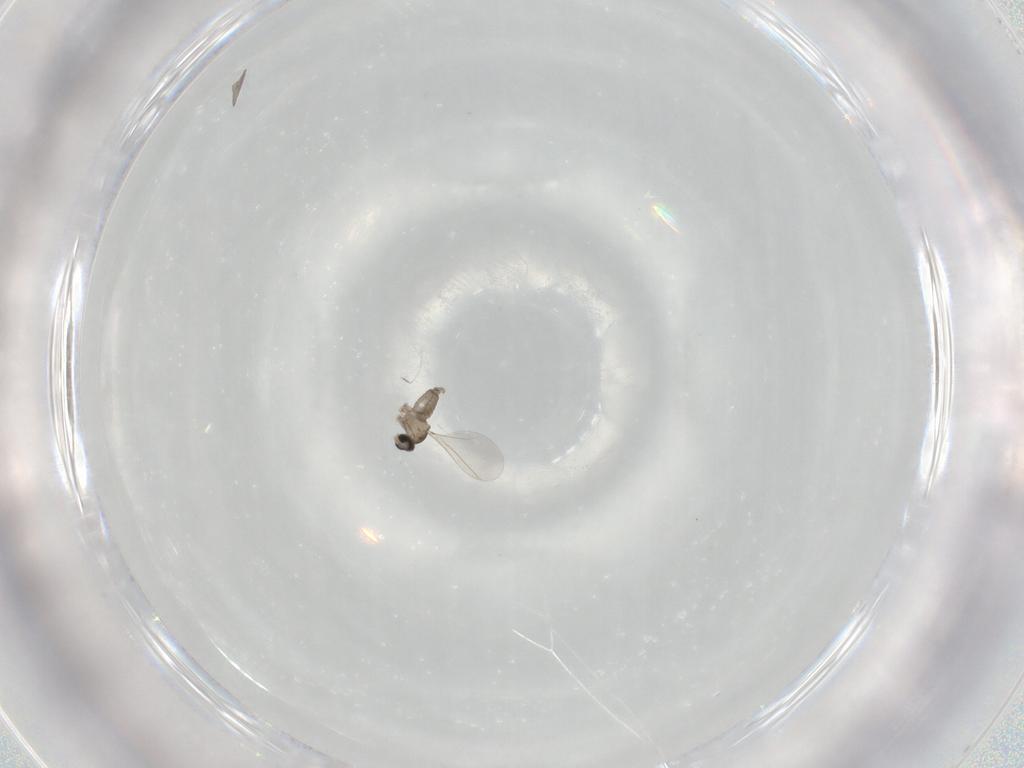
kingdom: Animalia
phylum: Arthropoda
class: Insecta
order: Diptera
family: Cecidomyiidae
